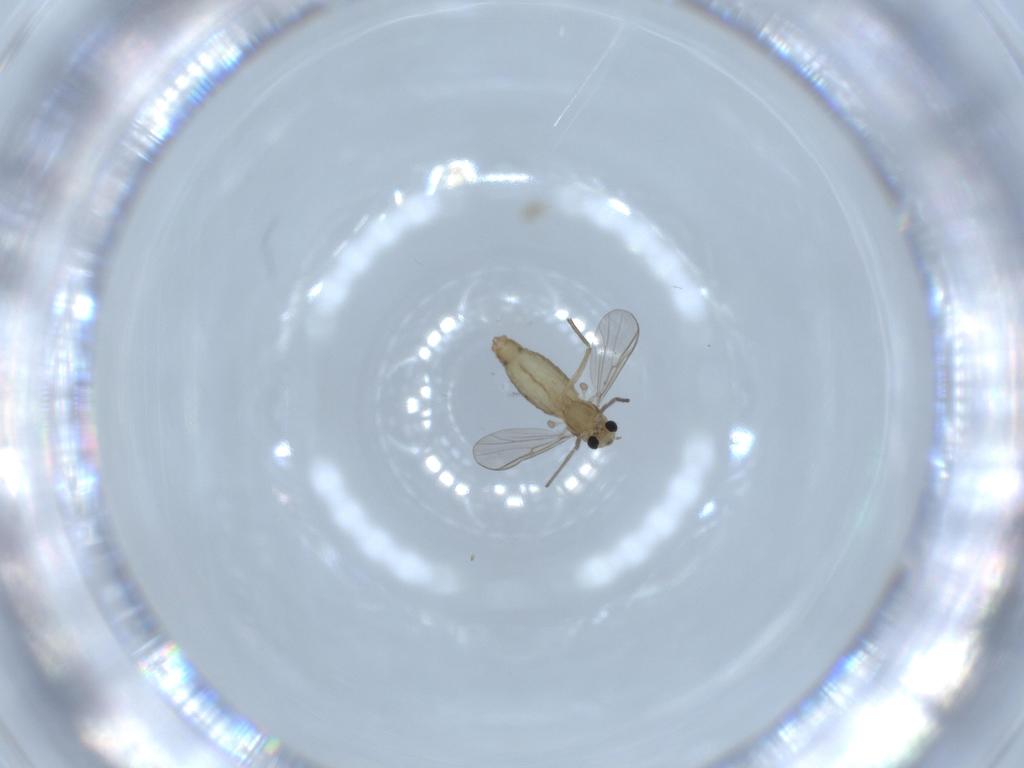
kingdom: Animalia
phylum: Arthropoda
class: Insecta
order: Diptera
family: Chironomidae
